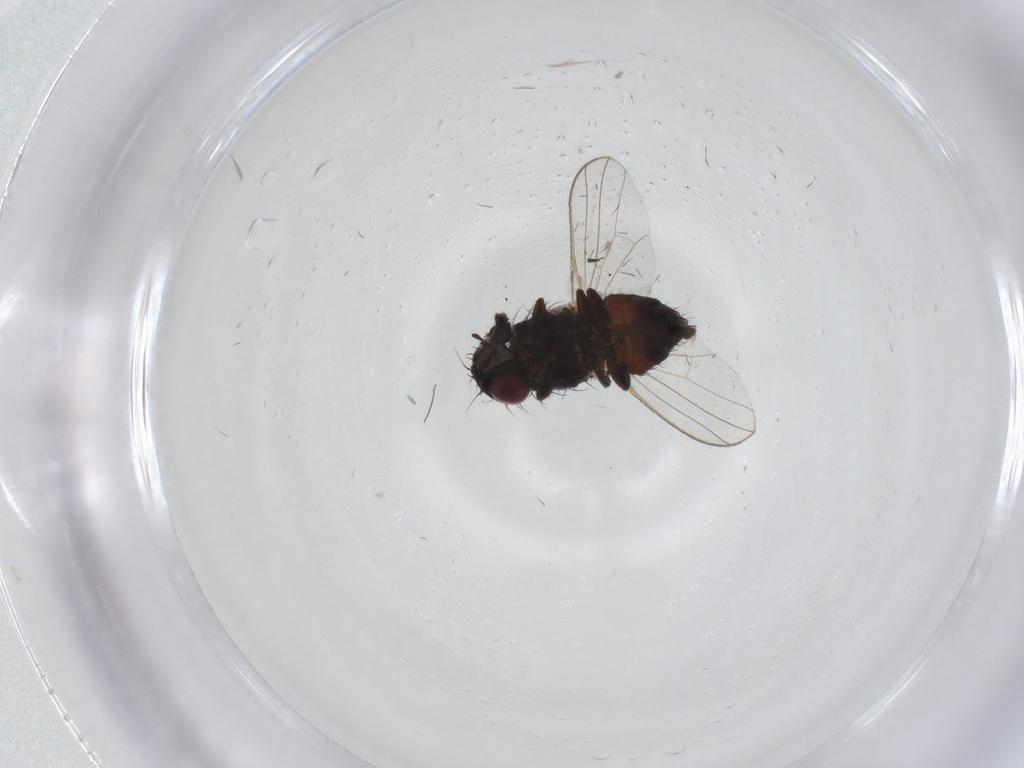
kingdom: Animalia
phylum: Arthropoda
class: Insecta
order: Diptera
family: Carnidae
